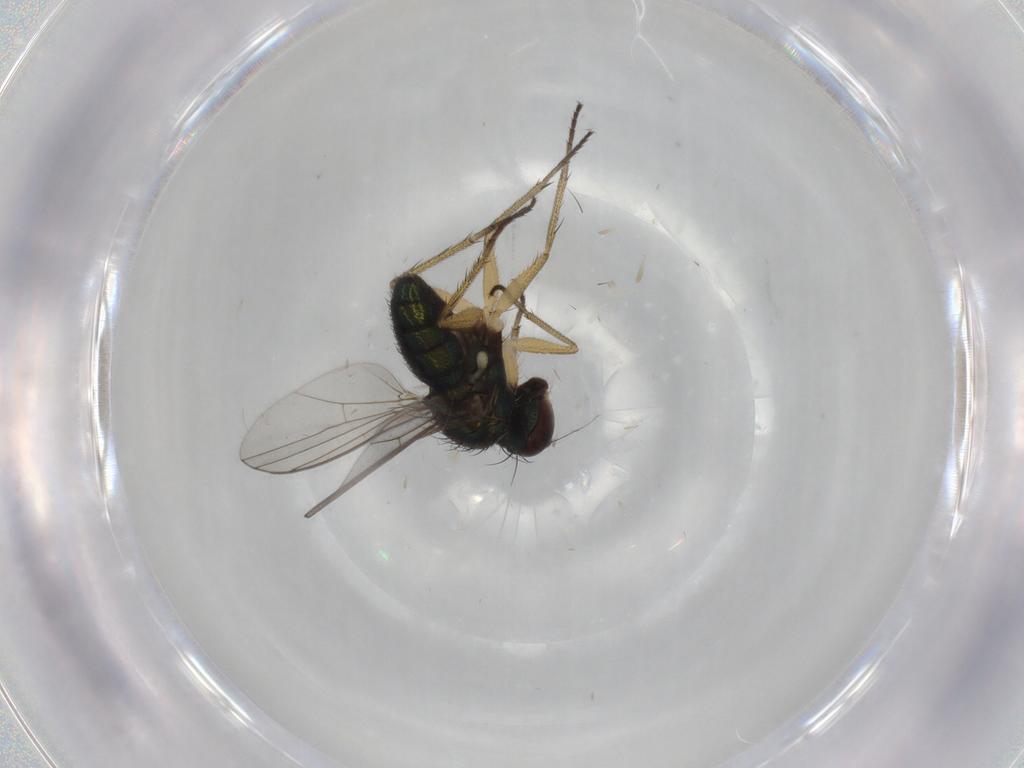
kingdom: Animalia
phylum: Arthropoda
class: Insecta
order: Diptera
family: Dolichopodidae
